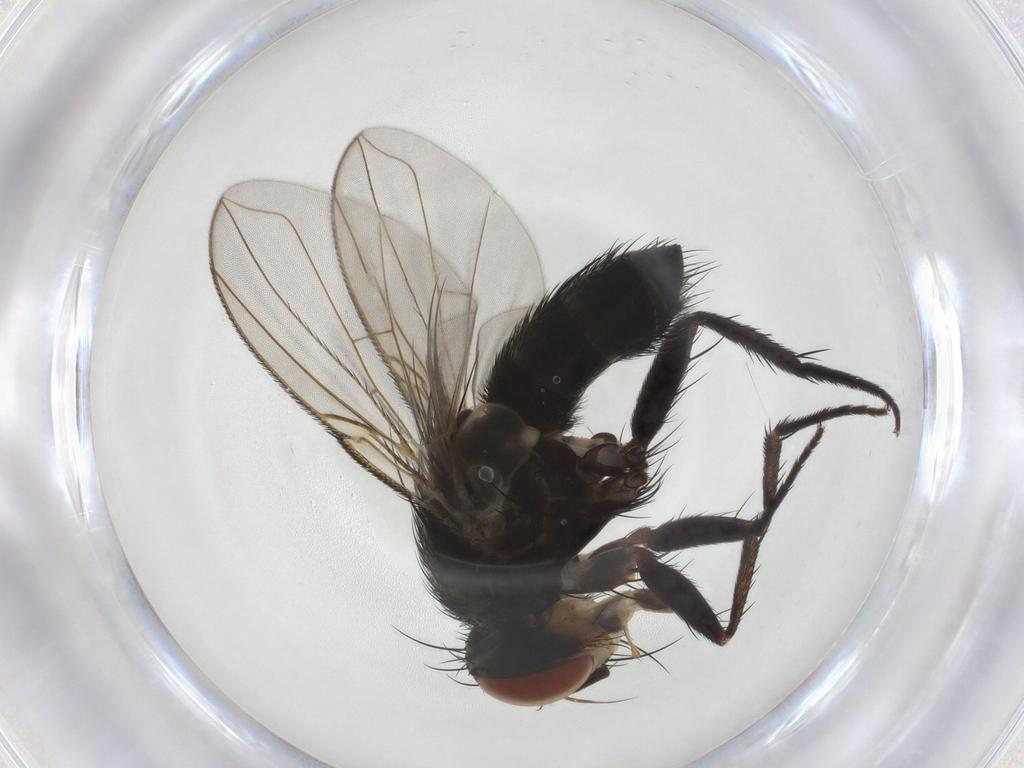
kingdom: Animalia
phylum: Arthropoda
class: Insecta
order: Diptera
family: Tachinidae
